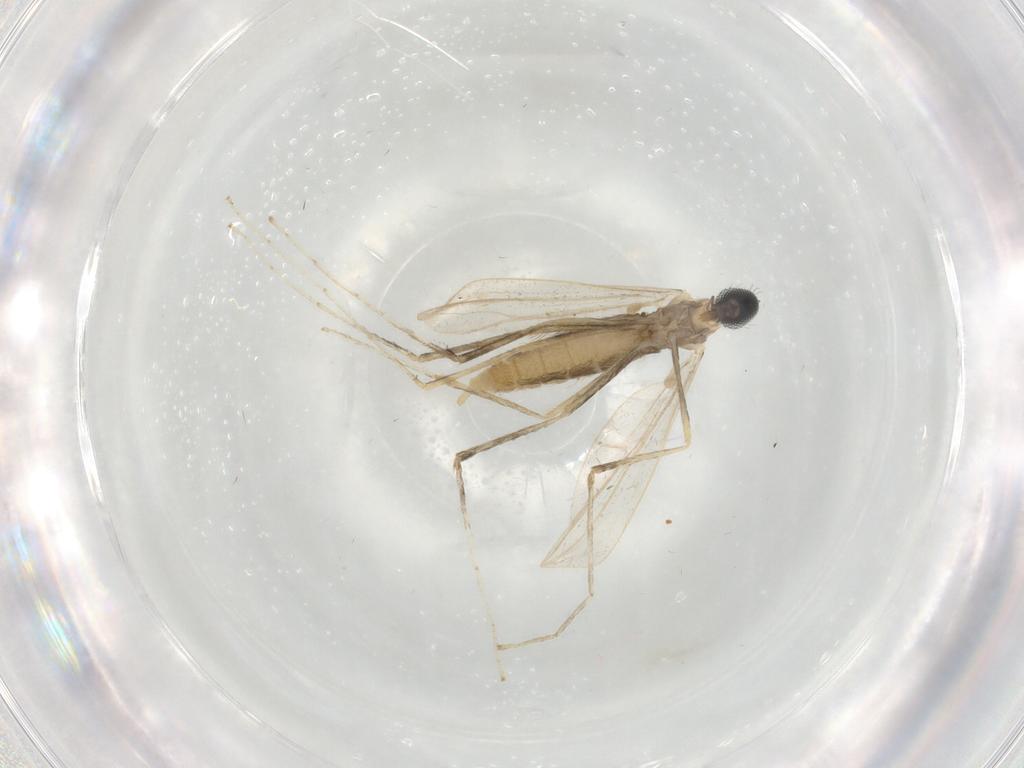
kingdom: Animalia
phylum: Arthropoda
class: Insecta
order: Diptera
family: Cecidomyiidae
